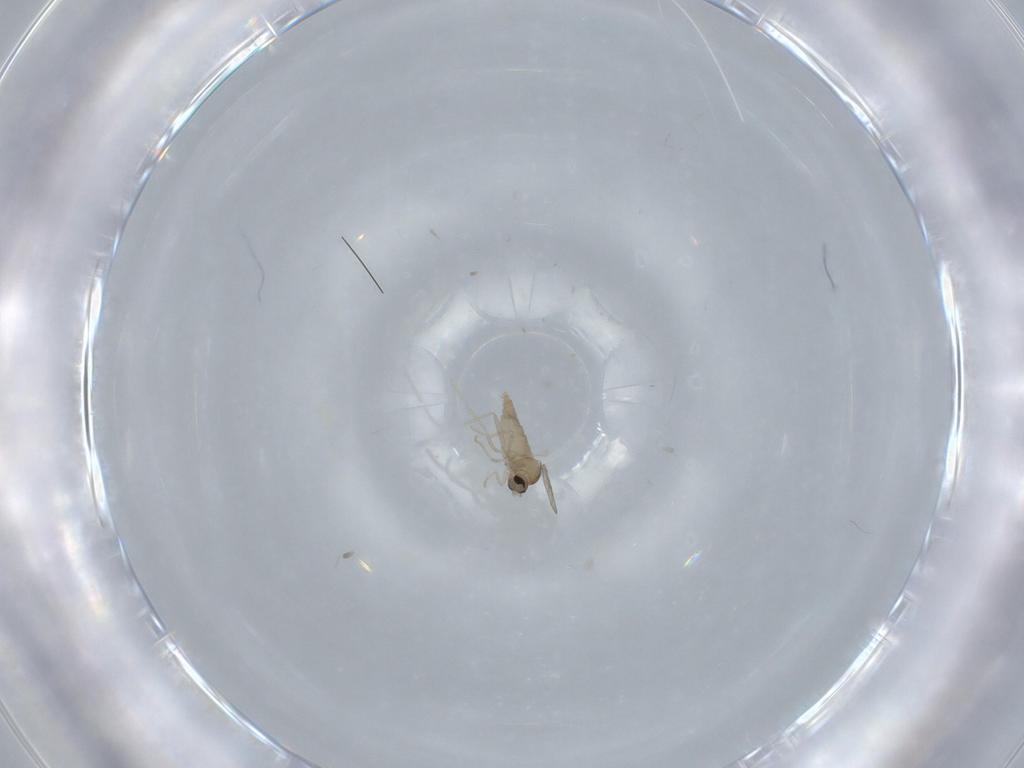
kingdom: Animalia
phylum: Arthropoda
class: Insecta
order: Diptera
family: Cecidomyiidae
